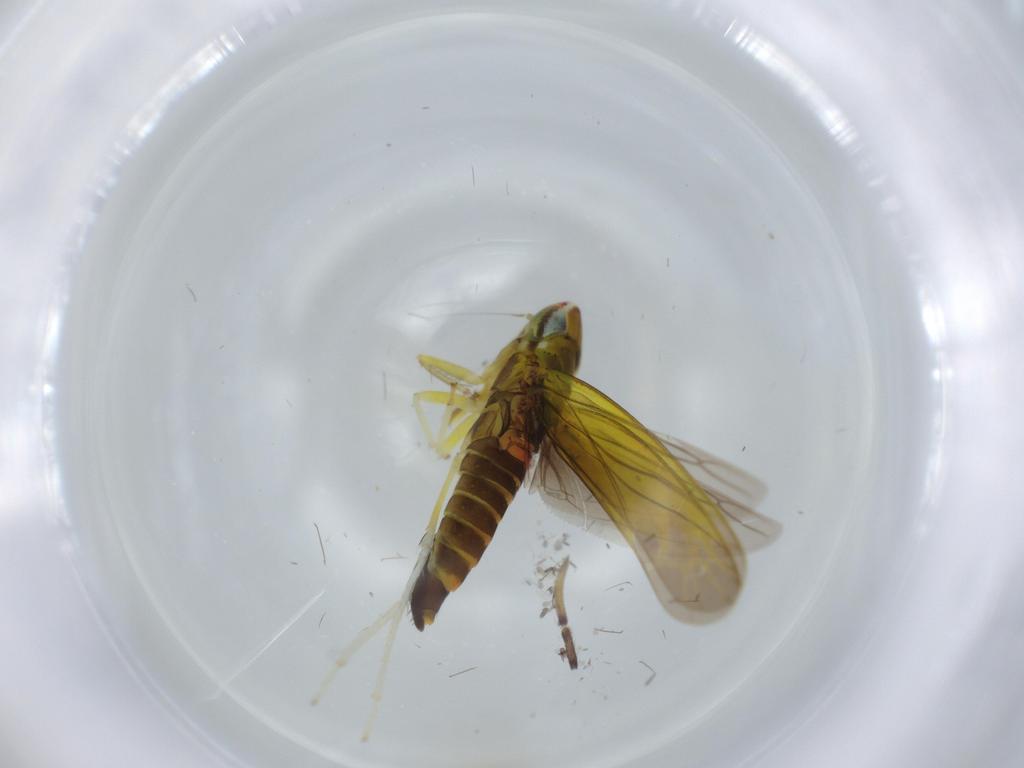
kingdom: Animalia
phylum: Arthropoda
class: Insecta
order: Hemiptera
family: Cicadellidae
